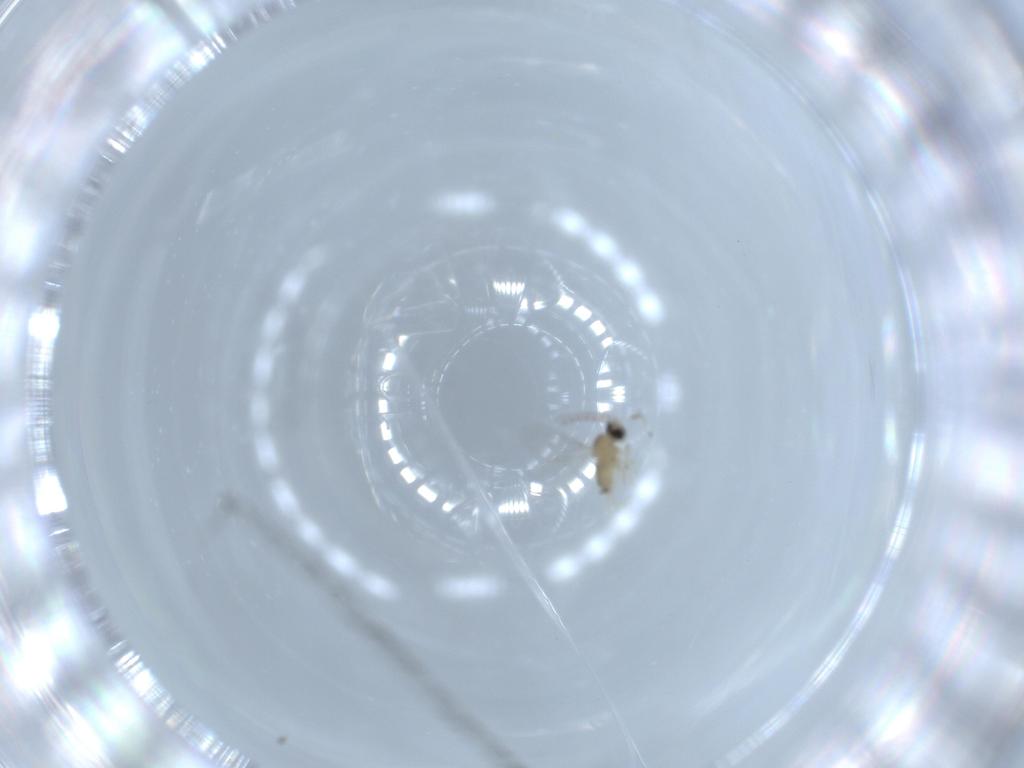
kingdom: Animalia
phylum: Arthropoda
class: Insecta
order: Diptera
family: Cecidomyiidae
